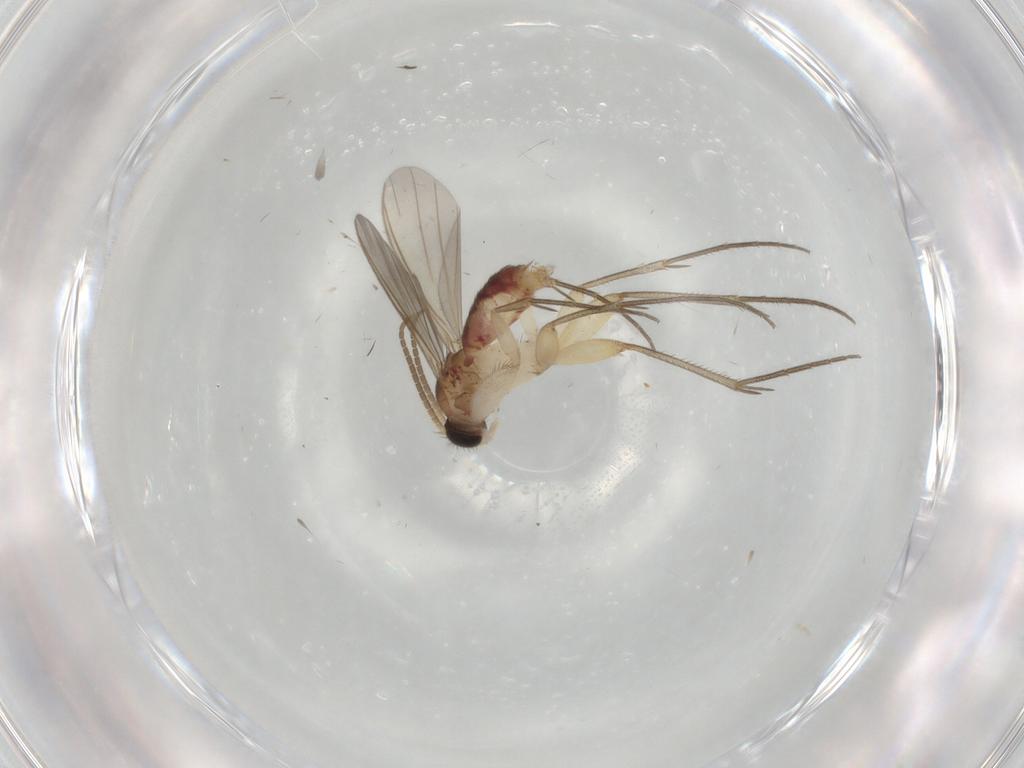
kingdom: Animalia
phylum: Arthropoda
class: Insecta
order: Diptera
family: Mycetophilidae
